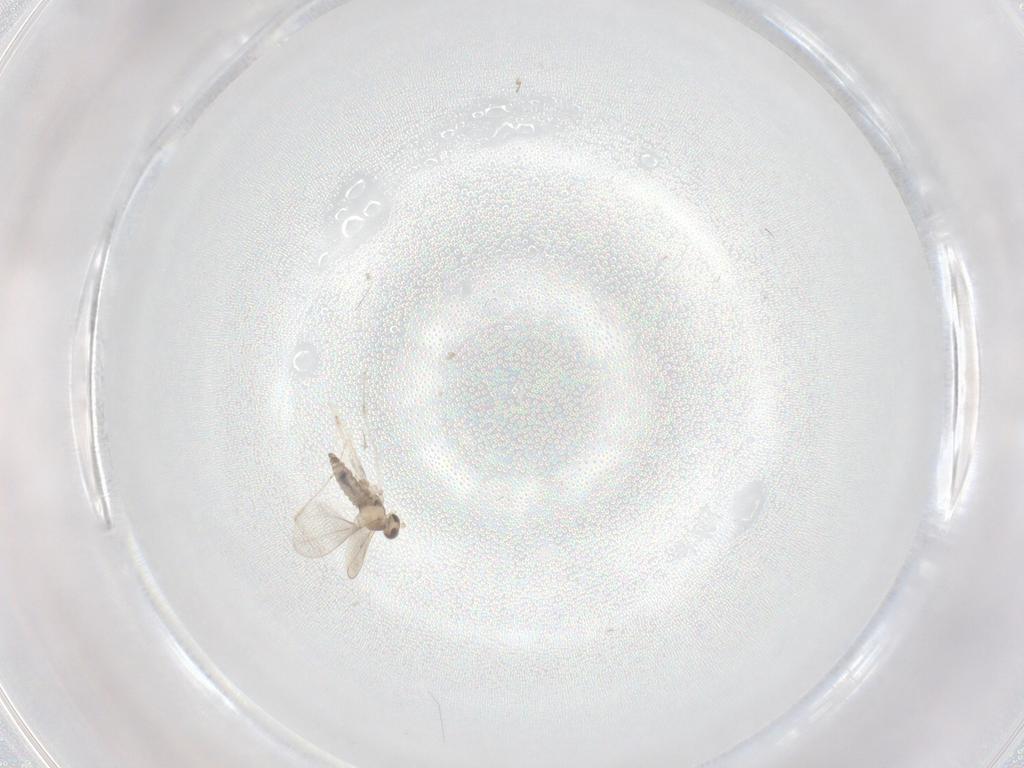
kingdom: Animalia
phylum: Arthropoda
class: Insecta
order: Diptera
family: Cecidomyiidae
